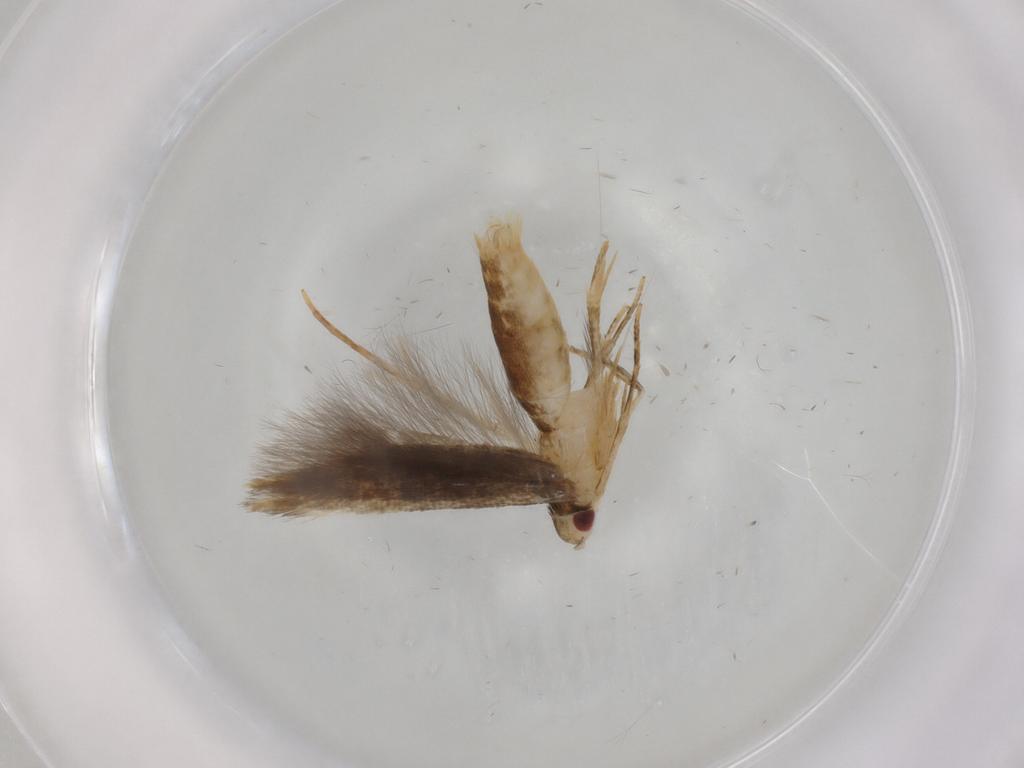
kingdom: Animalia
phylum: Arthropoda
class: Insecta
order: Lepidoptera
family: Gelechiidae
